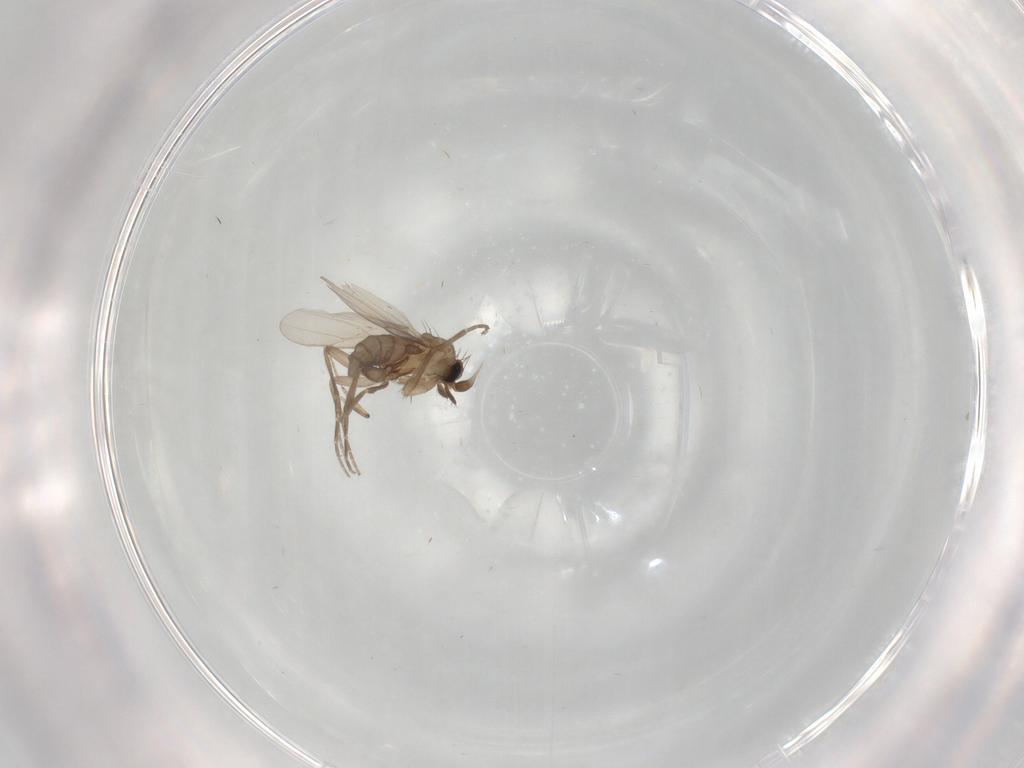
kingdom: Animalia
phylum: Arthropoda
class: Insecta
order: Diptera
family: Phoridae
